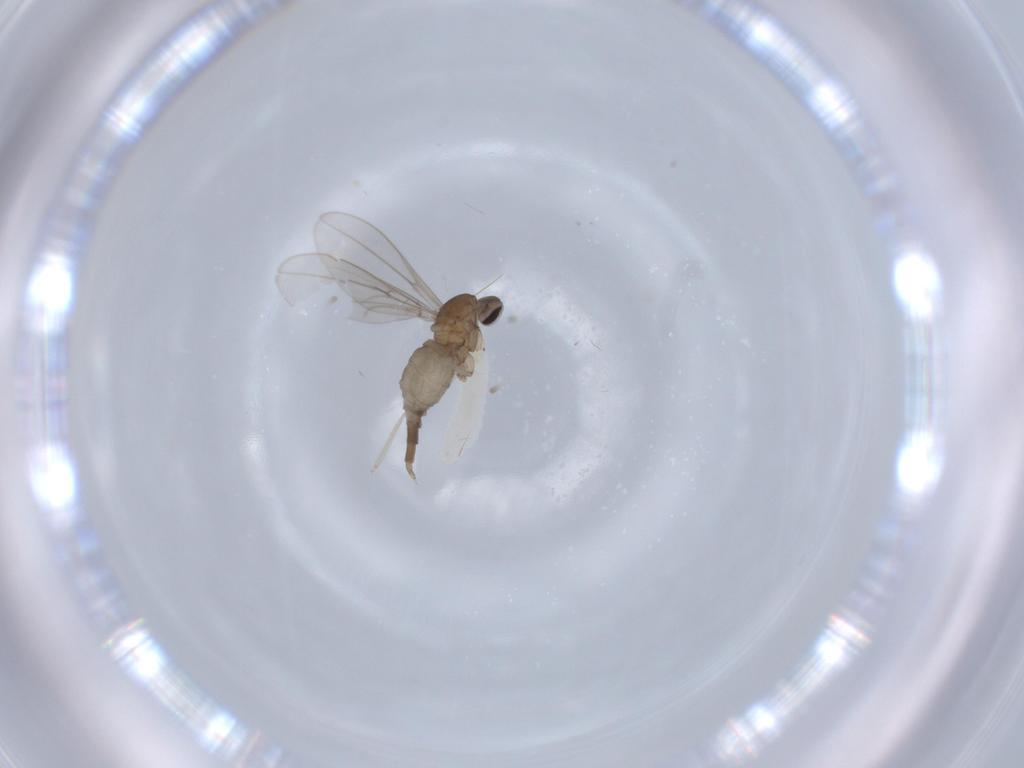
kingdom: Animalia
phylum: Arthropoda
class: Insecta
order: Diptera
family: Cecidomyiidae
